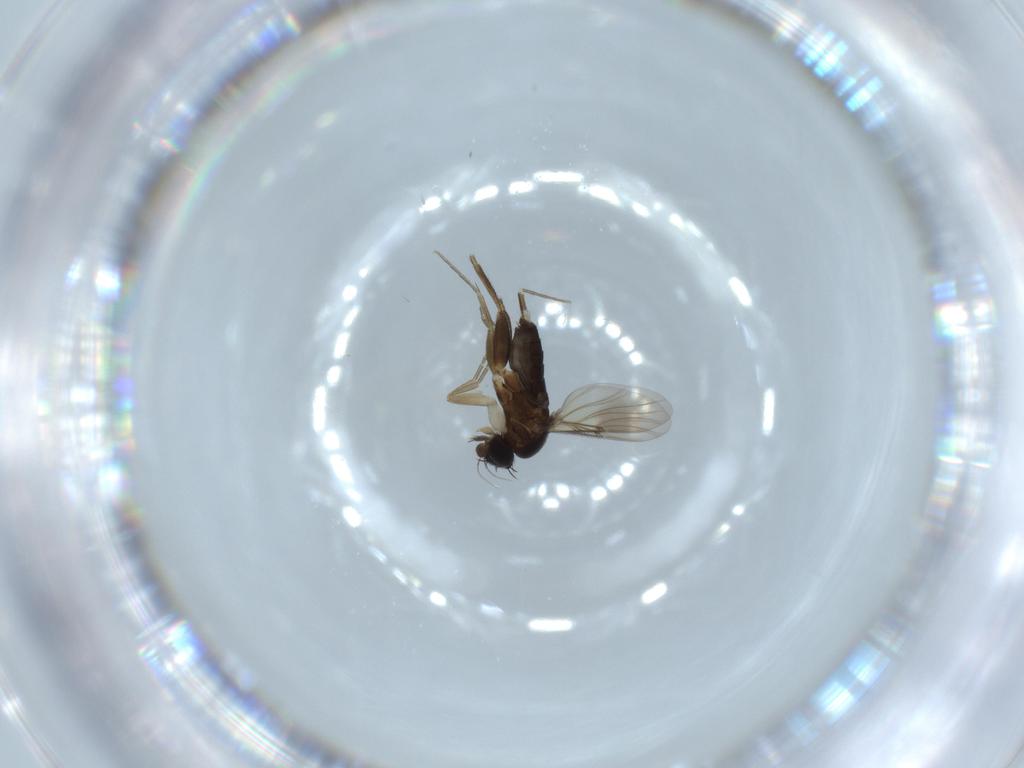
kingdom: Animalia
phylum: Arthropoda
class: Insecta
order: Diptera
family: Phoridae
